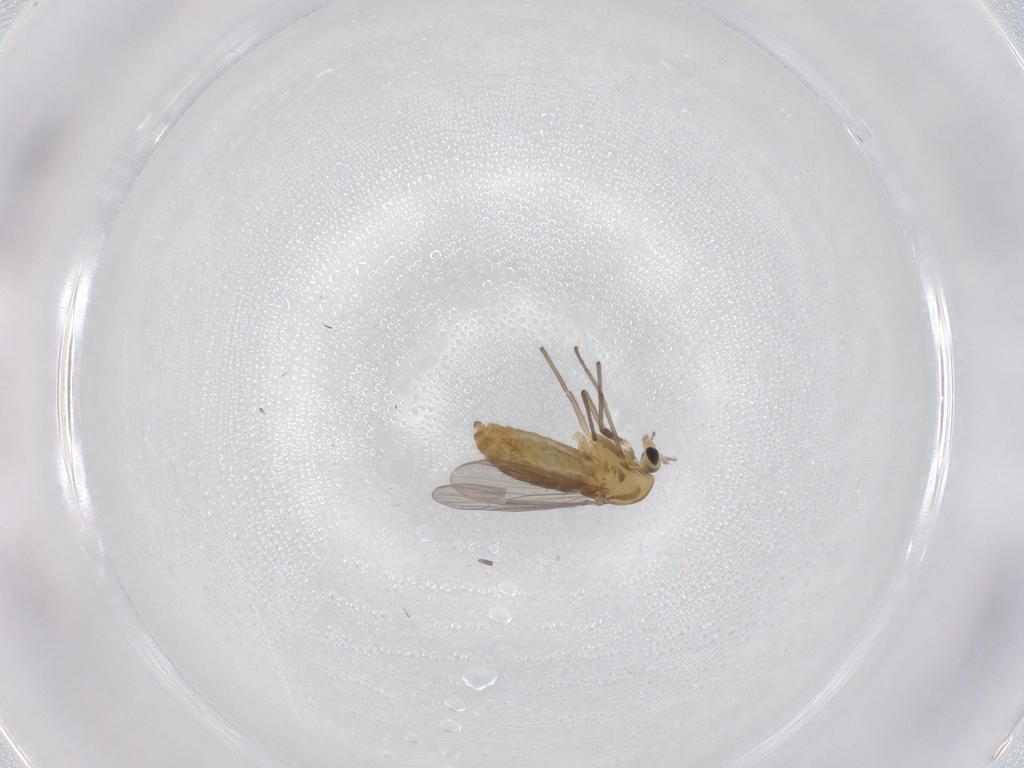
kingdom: Animalia
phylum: Arthropoda
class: Insecta
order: Diptera
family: Chironomidae
